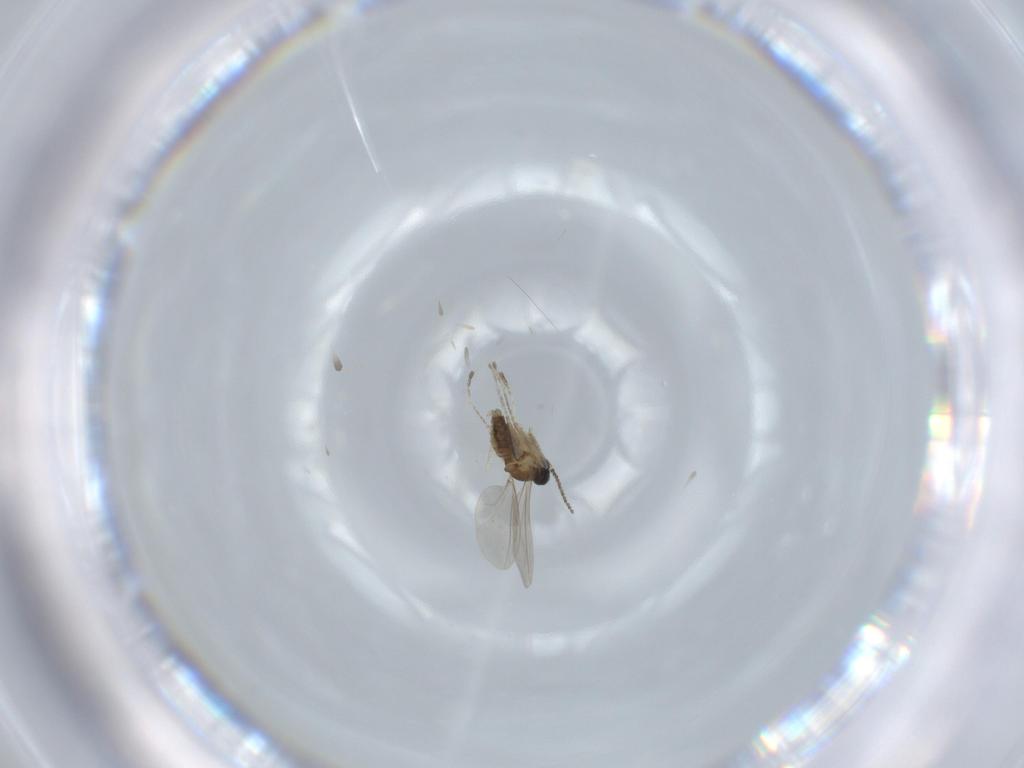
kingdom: Animalia
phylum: Arthropoda
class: Insecta
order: Diptera
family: Cecidomyiidae
